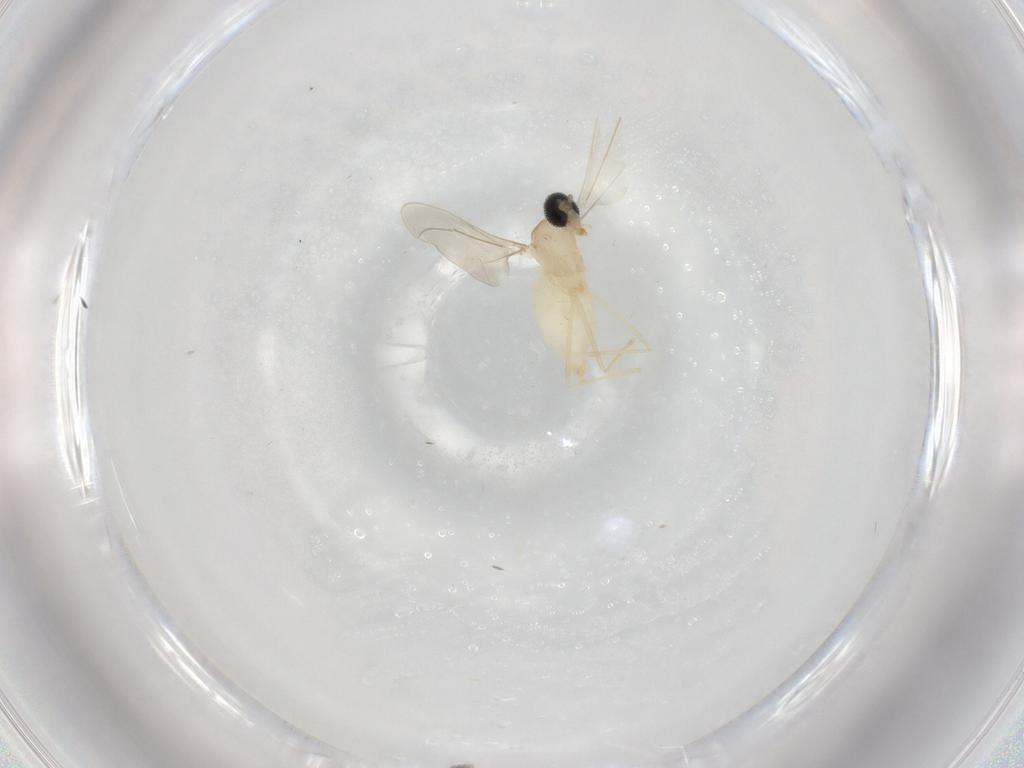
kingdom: Animalia
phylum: Arthropoda
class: Insecta
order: Diptera
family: Cecidomyiidae
